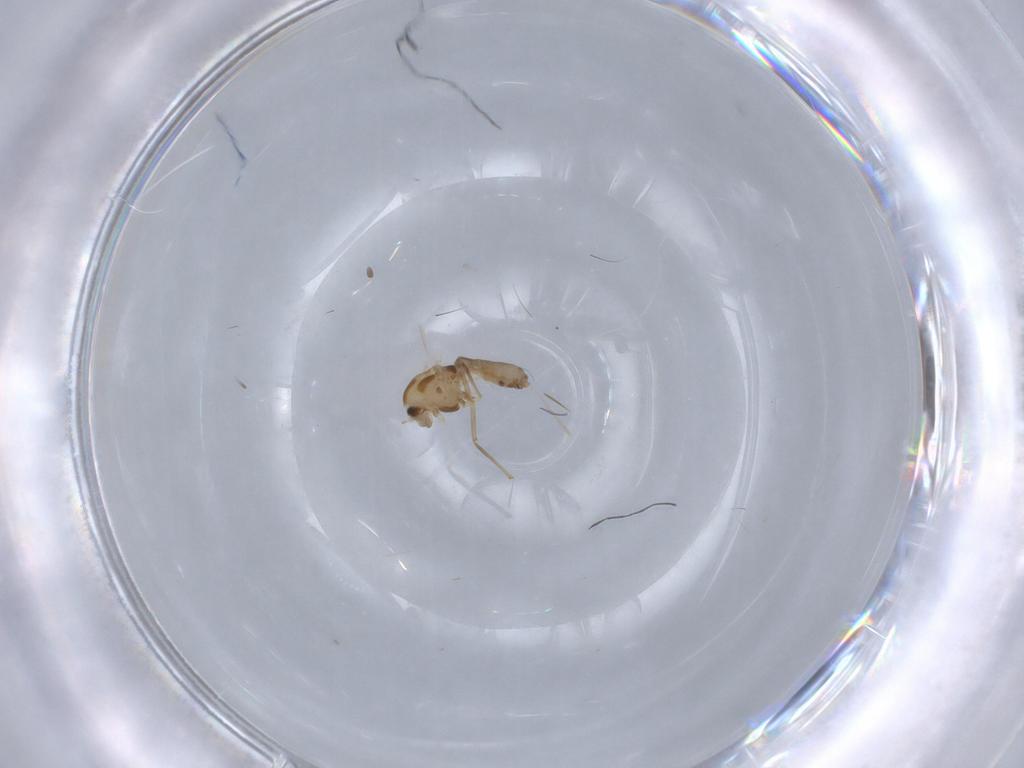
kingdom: Animalia
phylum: Arthropoda
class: Insecta
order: Diptera
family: Chironomidae
